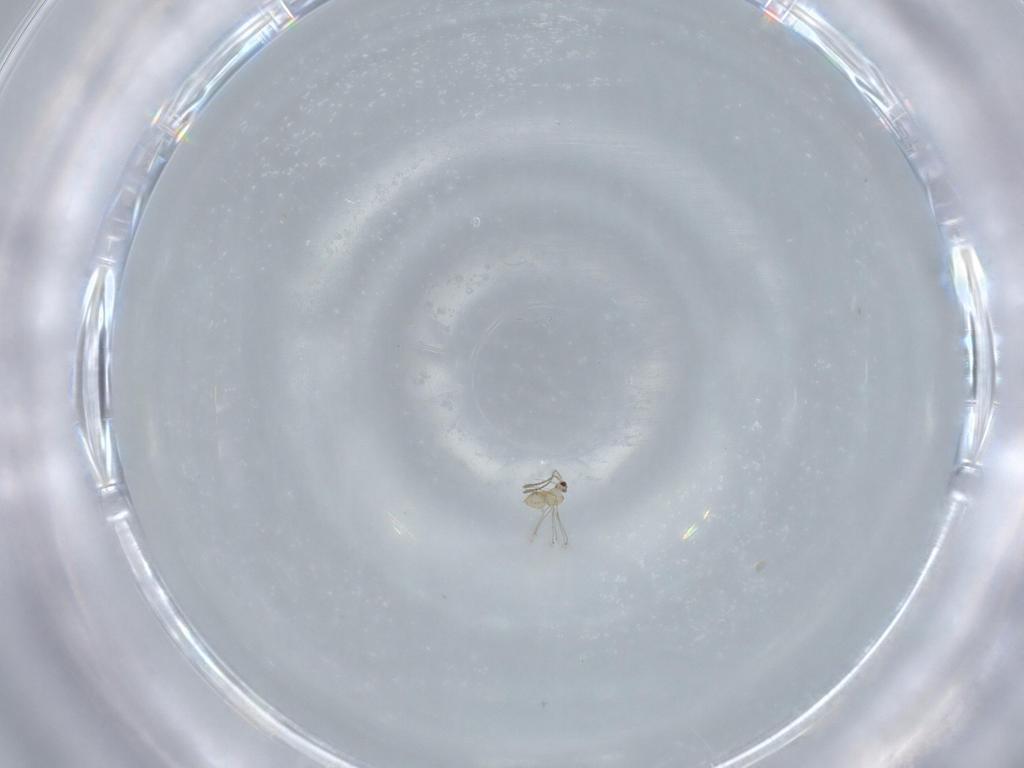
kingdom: Animalia
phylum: Arthropoda
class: Insecta
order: Hymenoptera
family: Mymaridae
